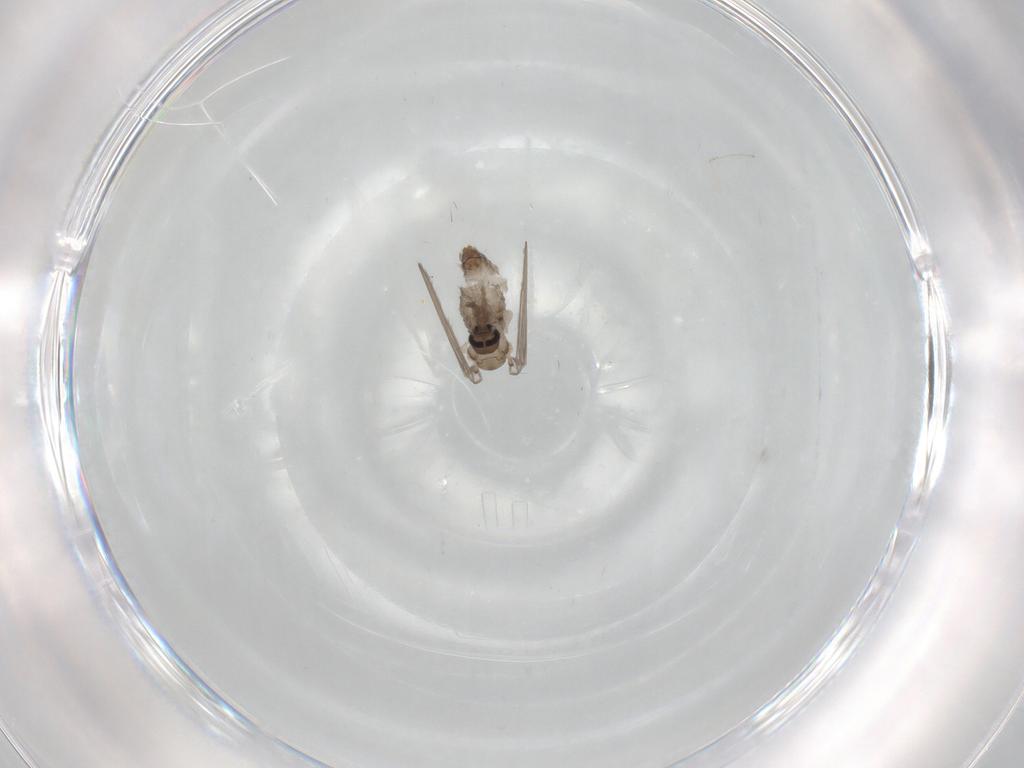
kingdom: Animalia
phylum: Arthropoda
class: Insecta
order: Diptera
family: Psychodidae
